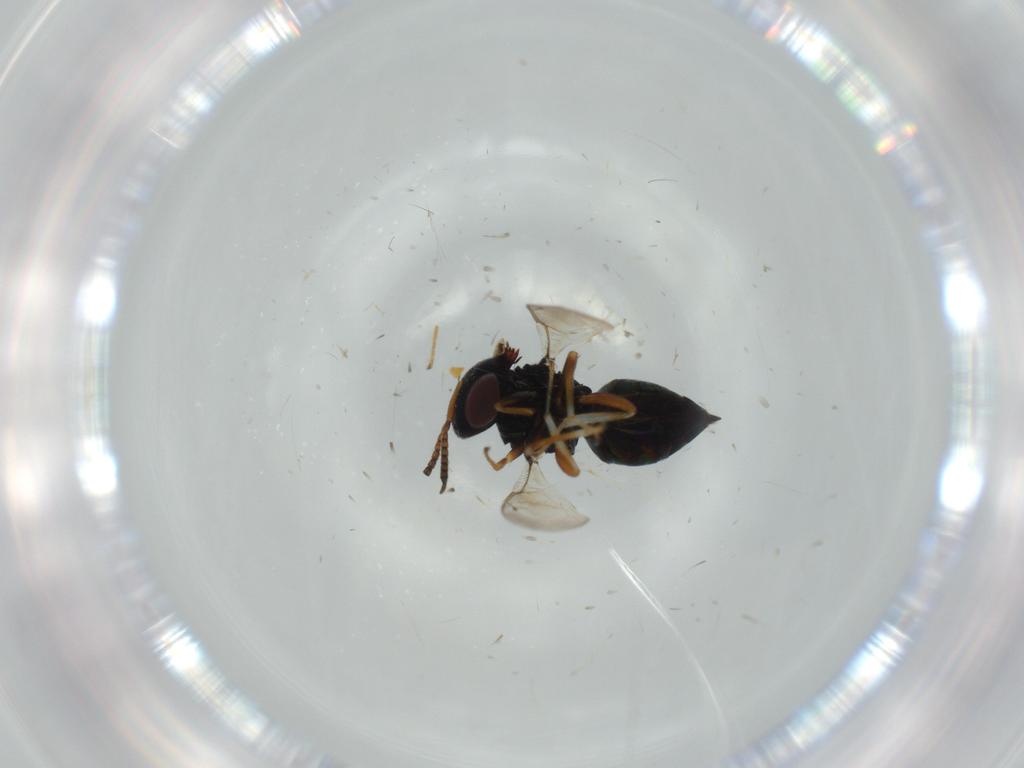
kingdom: Animalia
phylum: Arthropoda
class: Insecta
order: Hymenoptera
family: Pteromalidae
